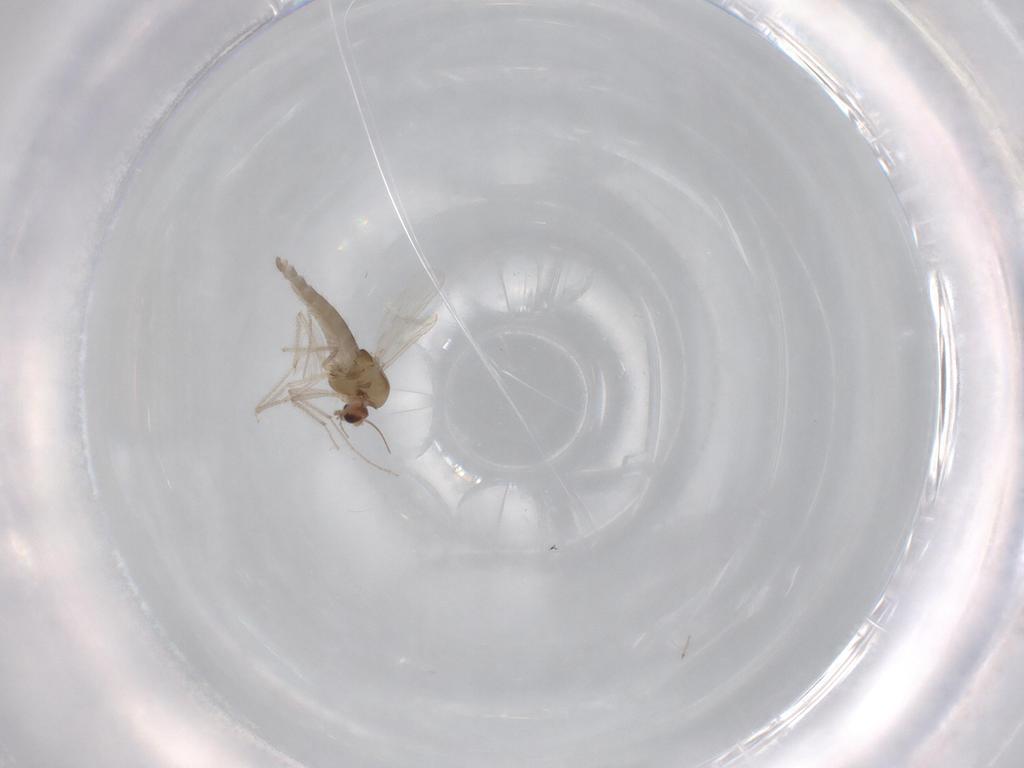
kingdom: Animalia
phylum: Arthropoda
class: Insecta
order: Diptera
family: Chironomidae
